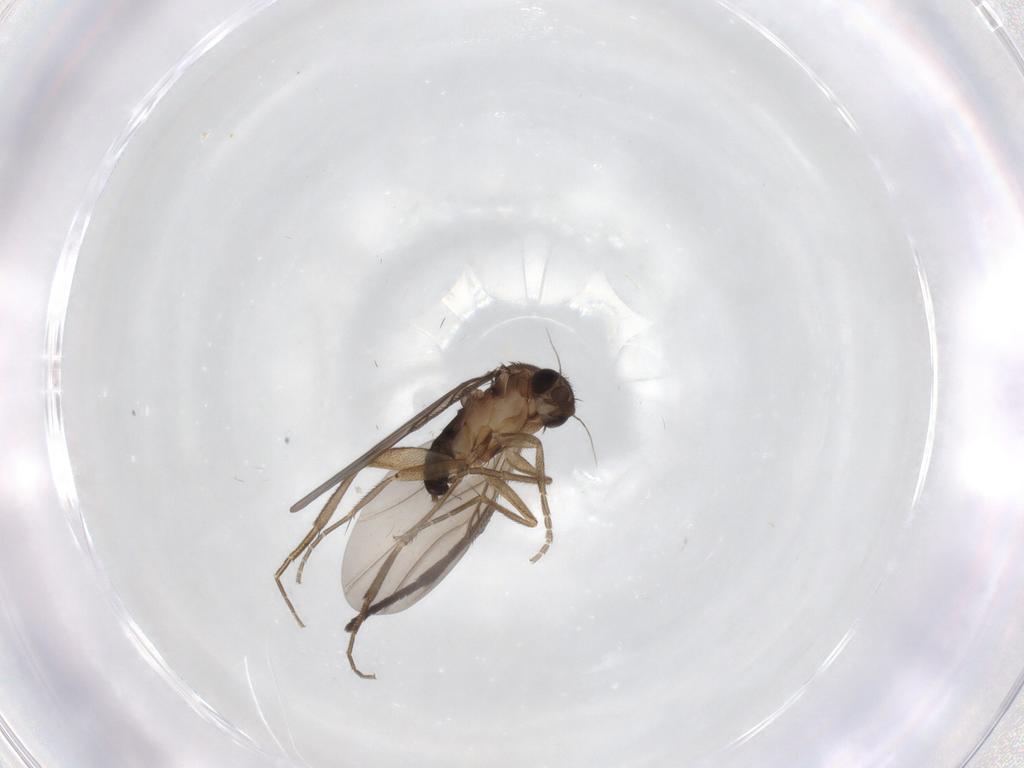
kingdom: Animalia
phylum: Arthropoda
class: Insecta
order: Diptera
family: Phoridae
